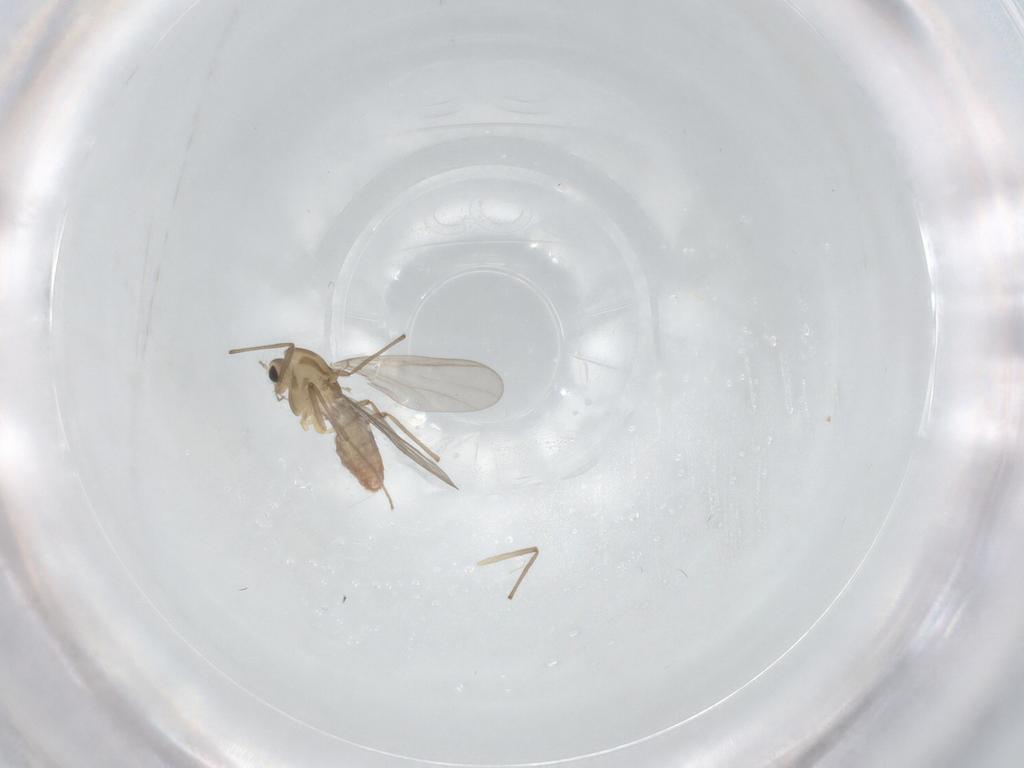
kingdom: Animalia
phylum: Arthropoda
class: Insecta
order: Diptera
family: Chironomidae
